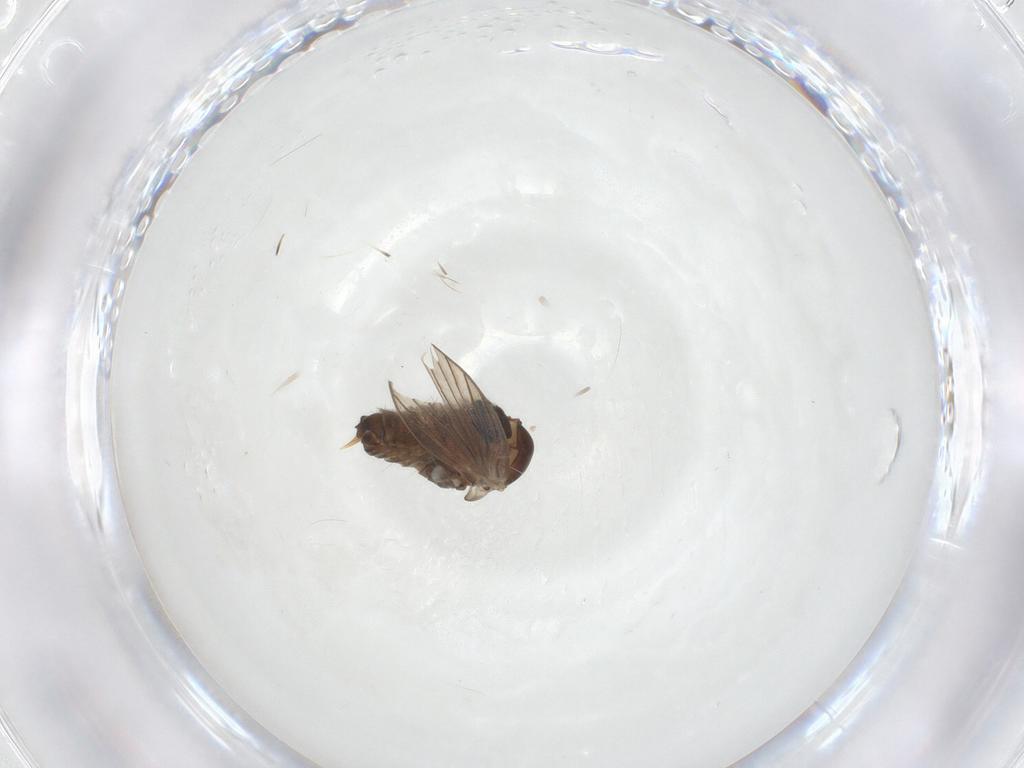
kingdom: Animalia
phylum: Arthropoda
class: Insecta
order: Diptera
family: Psychodidae
